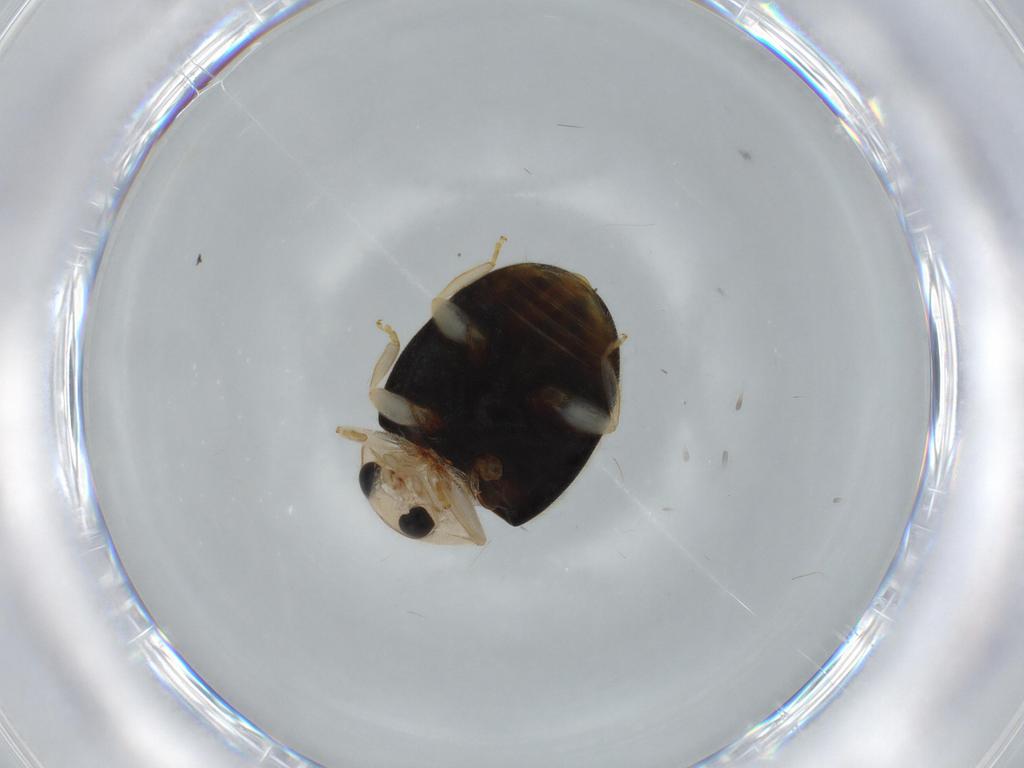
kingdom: Animalia
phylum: Arthropoda
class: Insecta
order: Coleoptera
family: Coccinellidae
